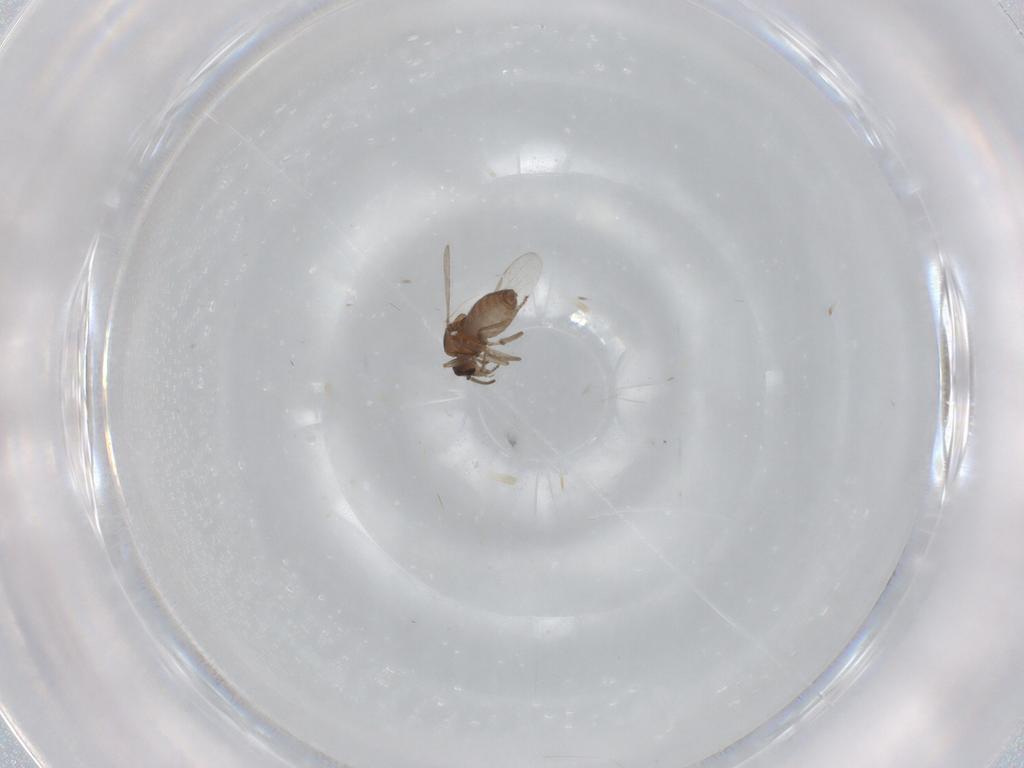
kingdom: Animalia
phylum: Arthropoda
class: Insecta
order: Diptera
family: Ceratopogonidae
